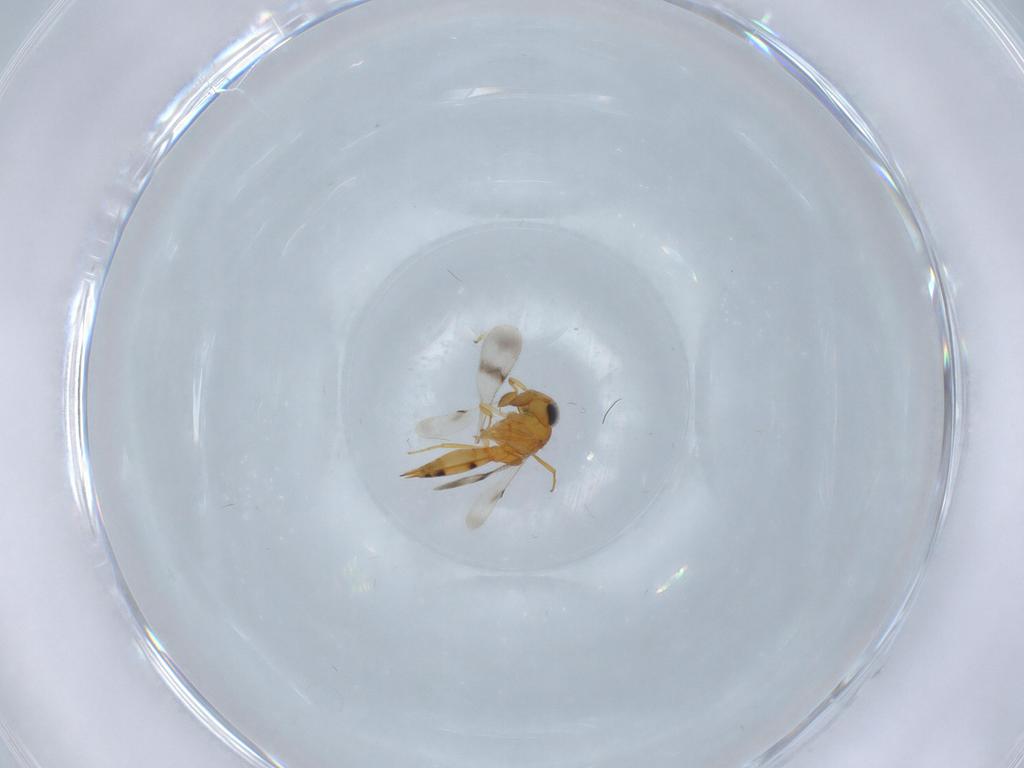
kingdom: Animalia
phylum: Arthropoda
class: Insecta
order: Hymenoptera
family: Scelionidae
